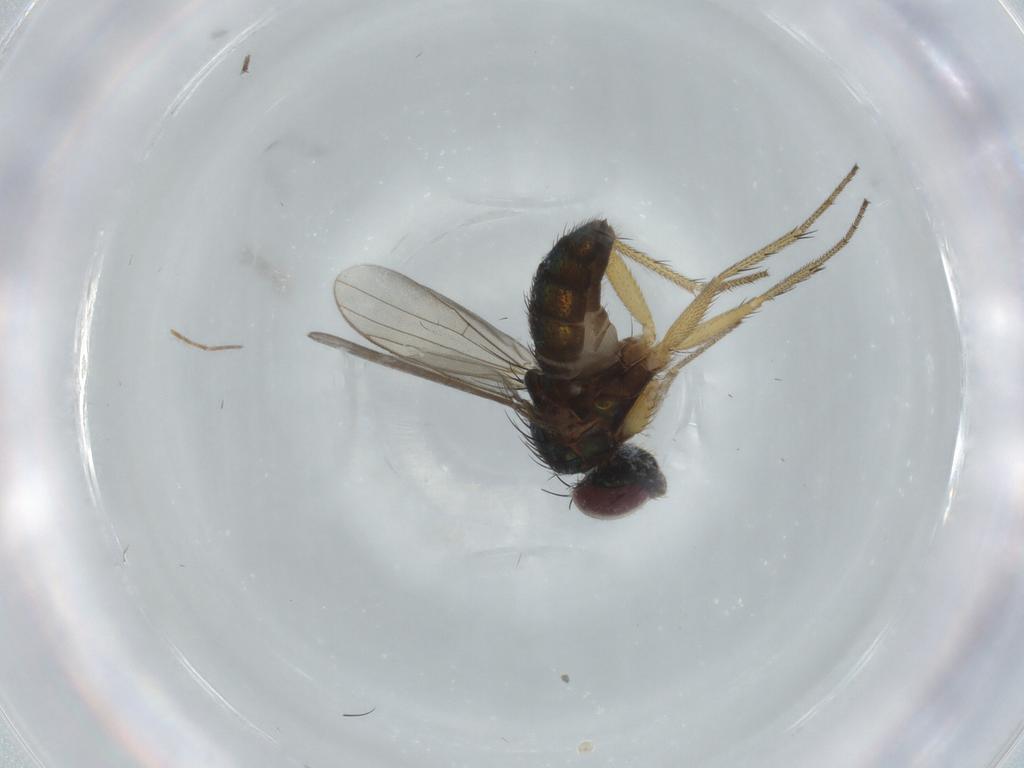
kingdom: Animalia
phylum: Arthropoda
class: Insecta
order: Diptera
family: Dolichopodidae
